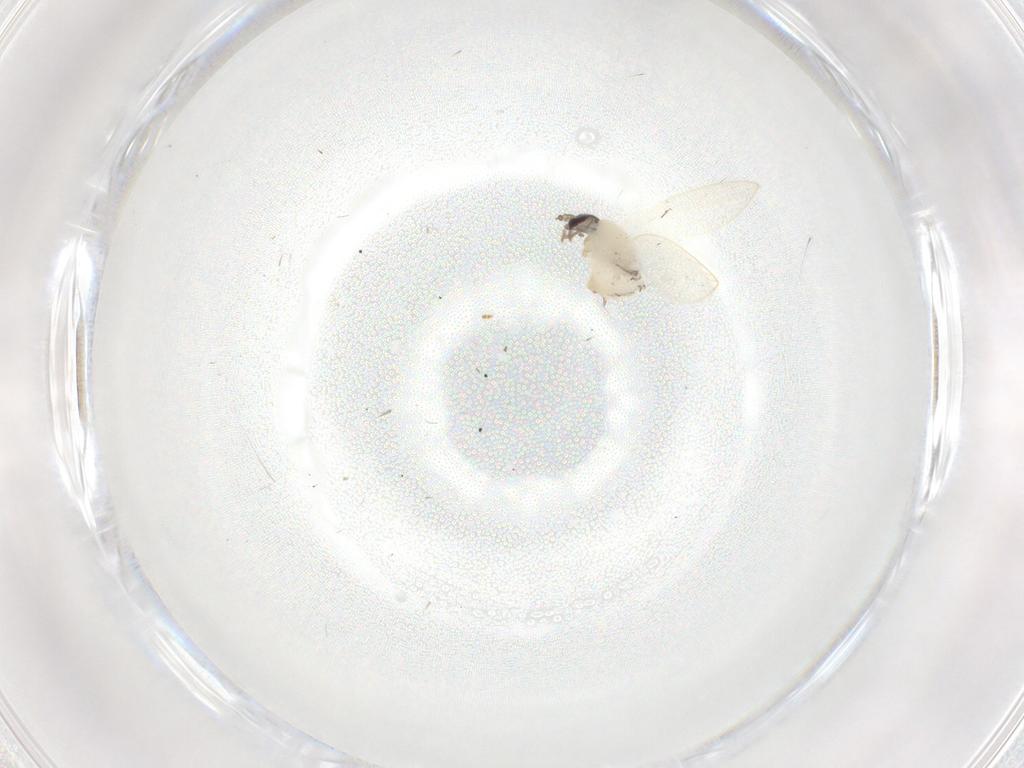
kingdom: Animalia
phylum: Arthropoda
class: Insecta
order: Diptera
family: Psychodidae
